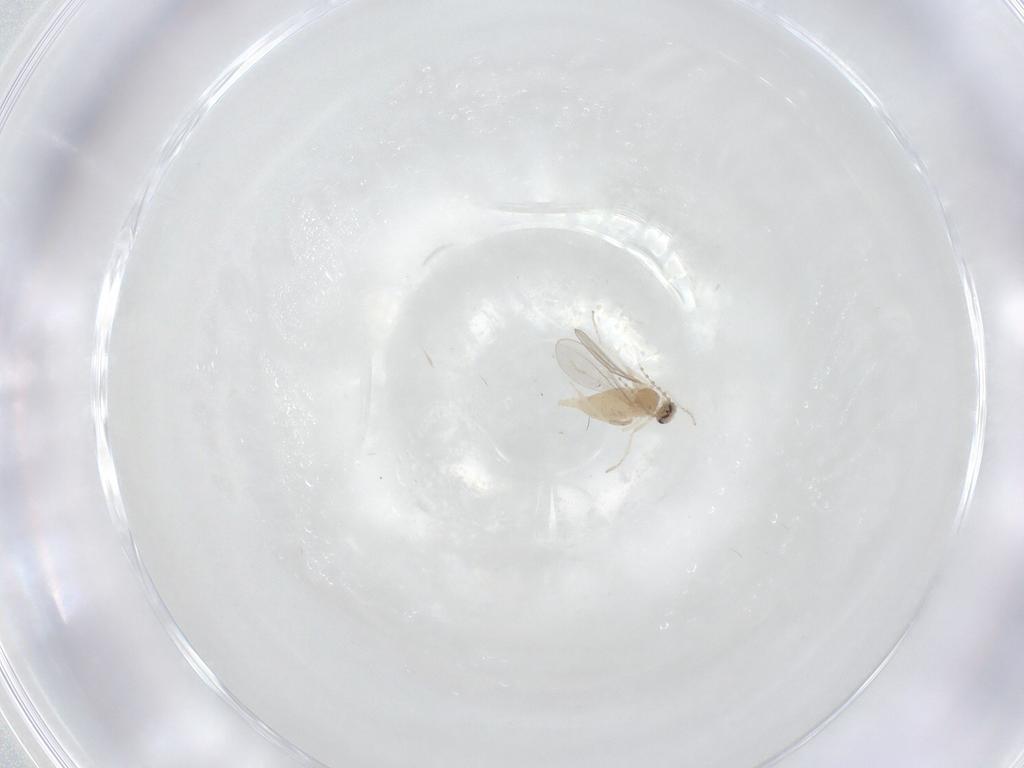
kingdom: Animalia
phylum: Arthropoda
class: Insecta
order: Diptera
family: Cecidomyiidae
